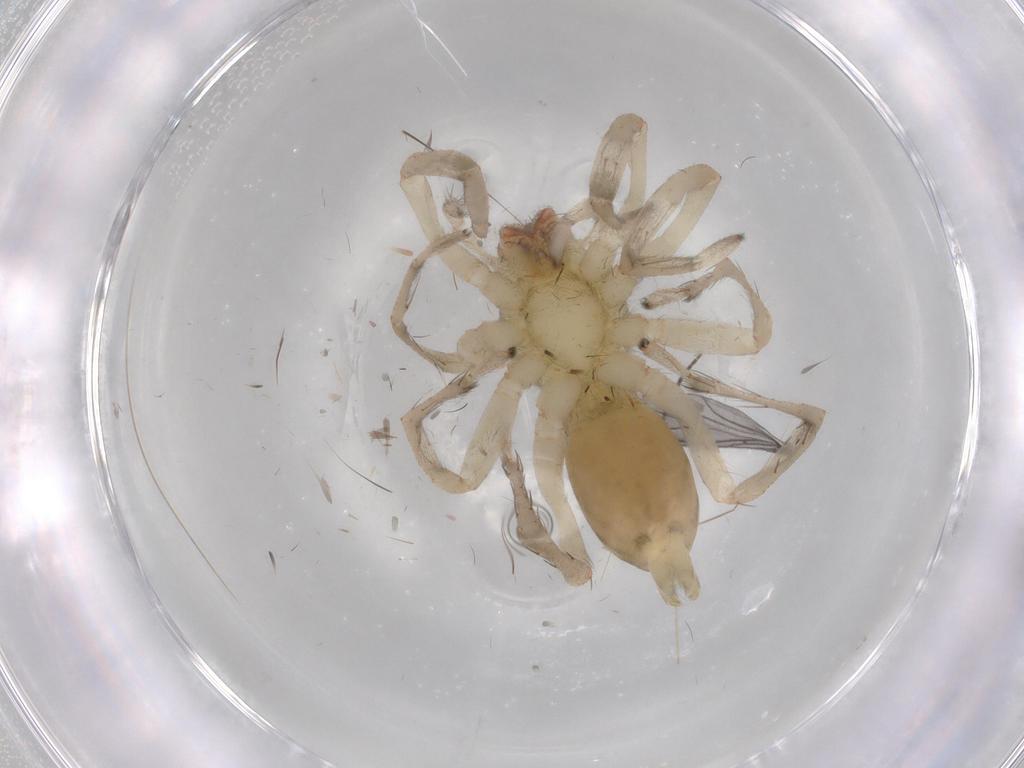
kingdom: Animalia
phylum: Arthropoda
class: Arachnida
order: Araneae
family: Anyphaenidae
